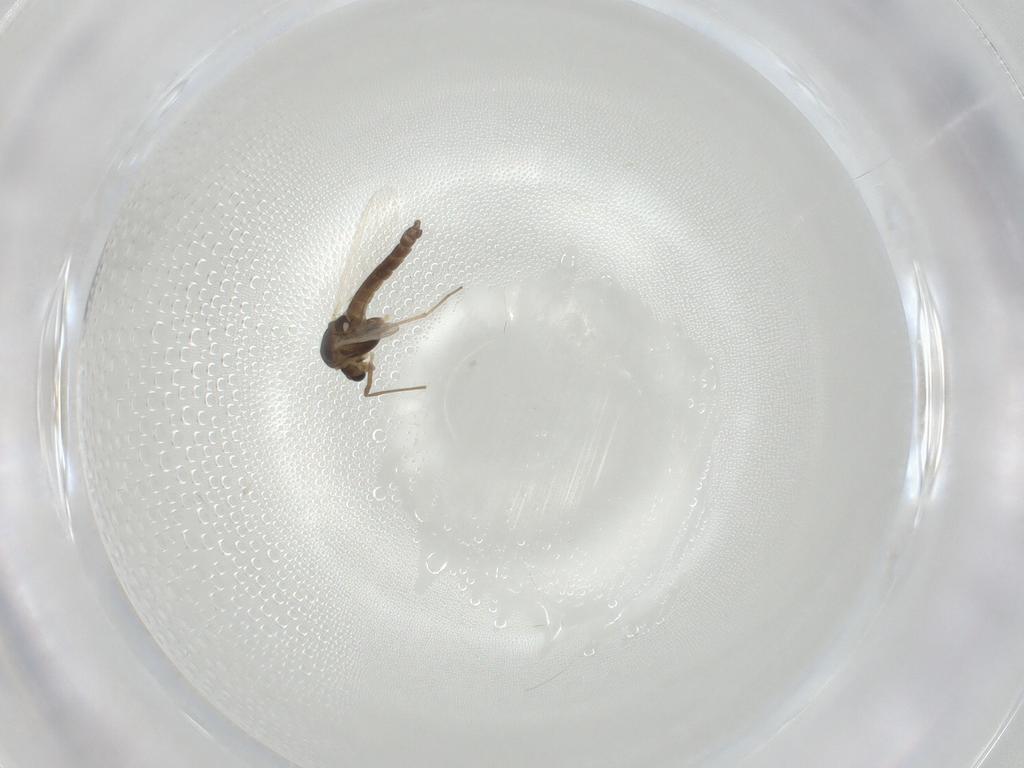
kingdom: Animalia
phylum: Arthropoda
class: Insecta
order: Diptera
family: Chironomidae
